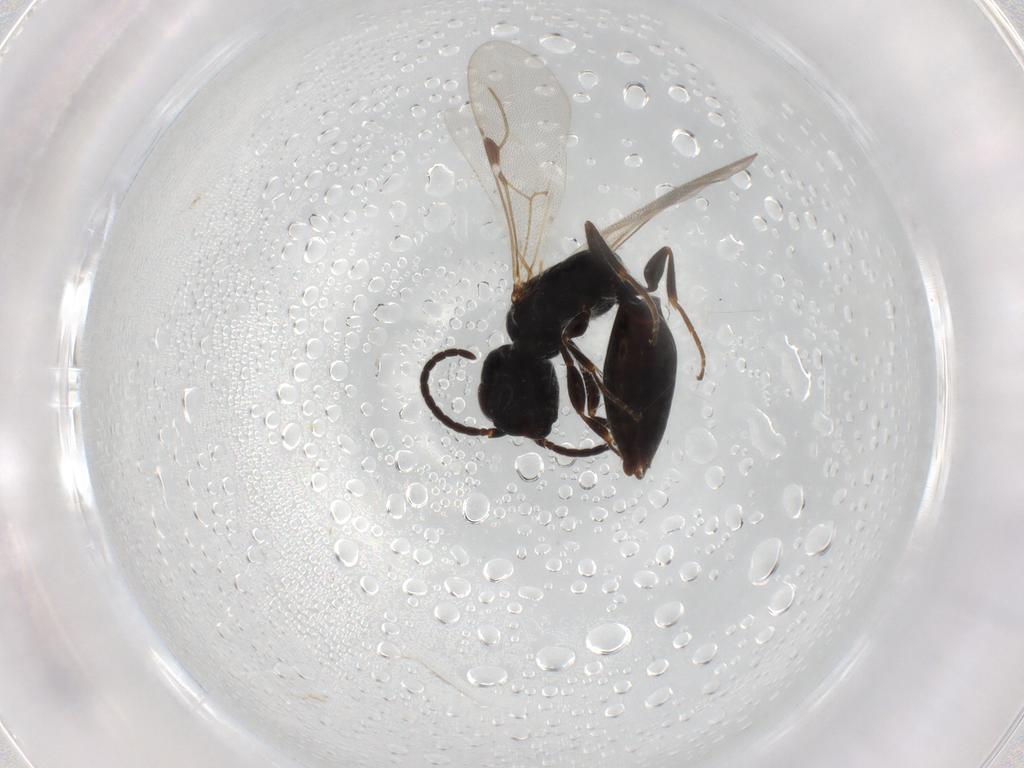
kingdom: Animalia
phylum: Arthropoda
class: Insecta
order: Hymenoptera
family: Bethylidae
